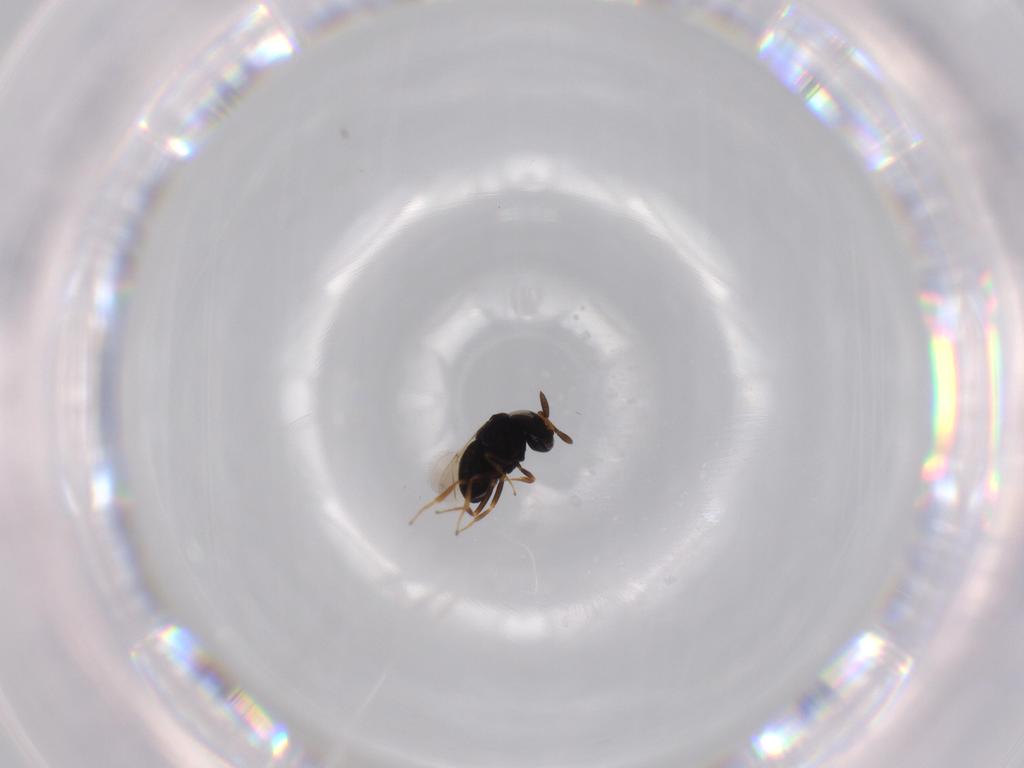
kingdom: Animalia
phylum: Arthropoda
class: Insecta
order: Hymenoptera
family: Scelionidae
